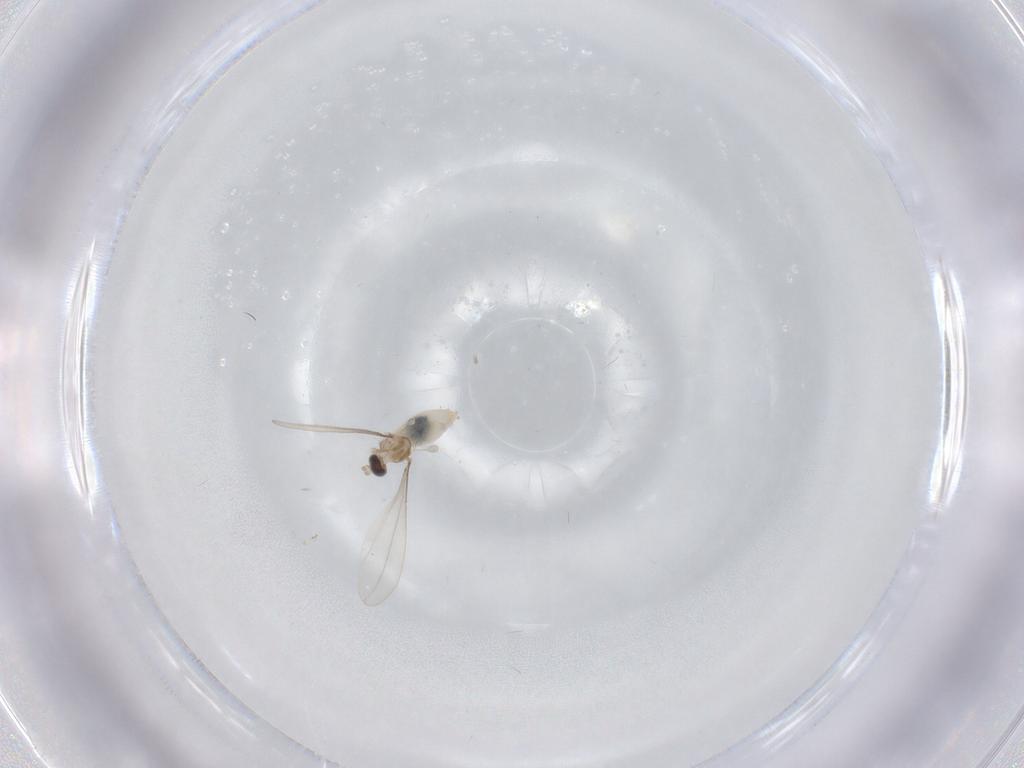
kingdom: Animalia
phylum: Arthropoda
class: Insecta
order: Diptera
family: Cecidomyiidae
